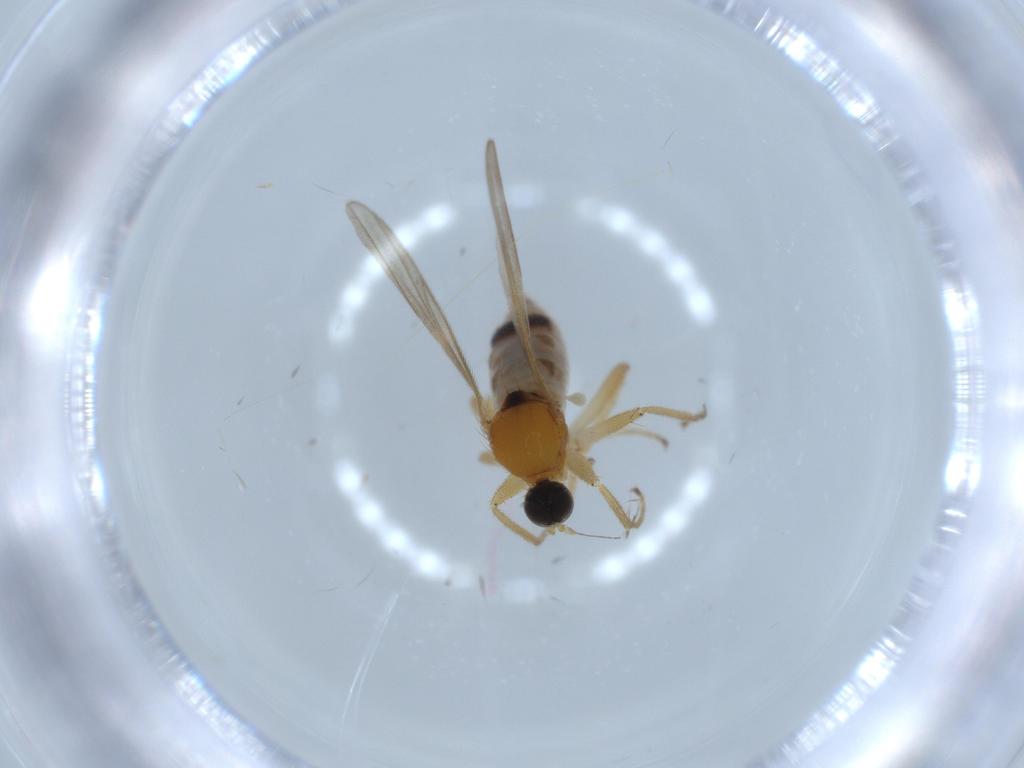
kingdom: Animalia
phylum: Arthropoda
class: Insecta
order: Diptera
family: Hybotidae
